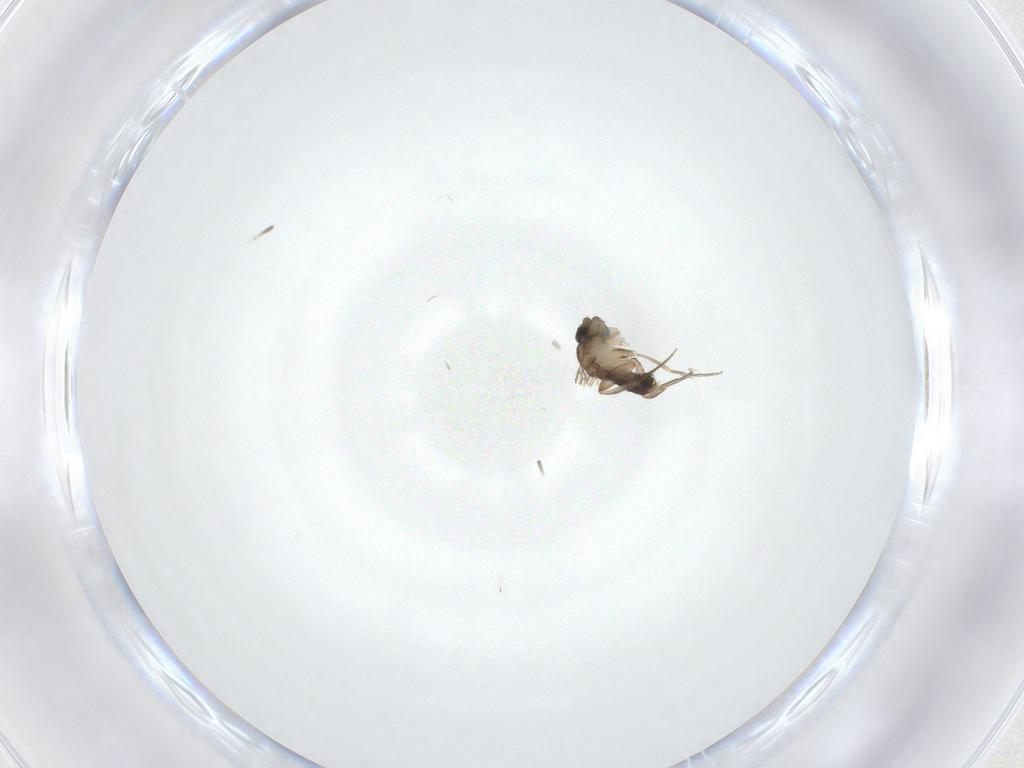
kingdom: Animalia
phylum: Arthropoda
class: Insecta
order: Diptera
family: Phoridae
